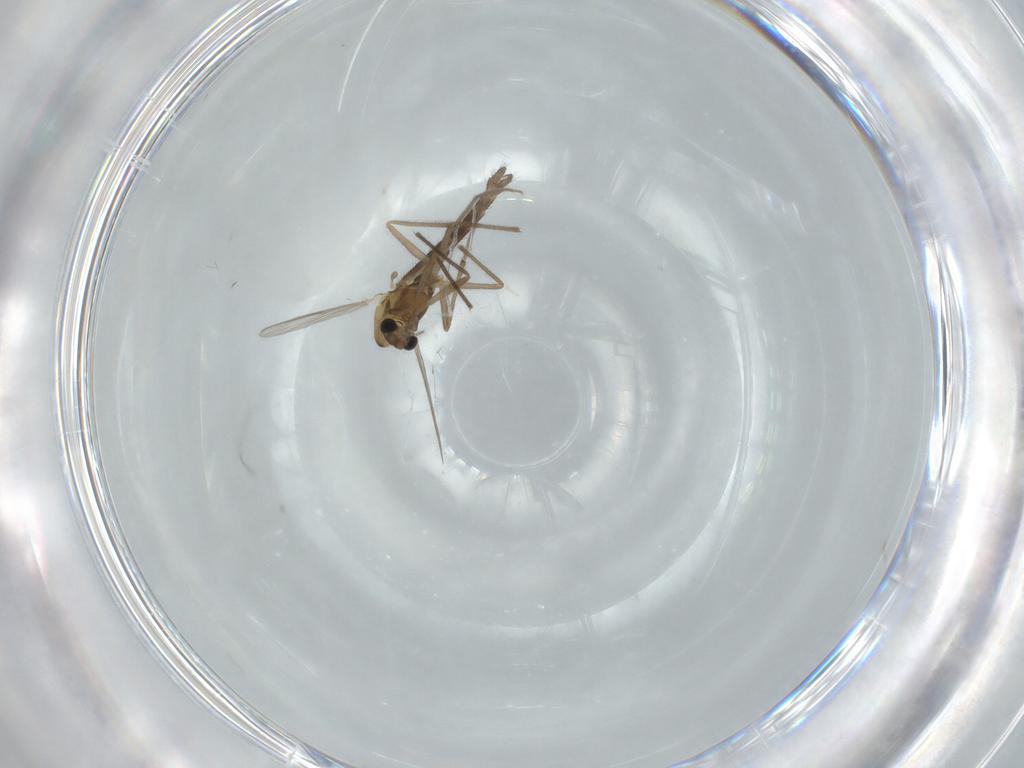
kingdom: Animalia
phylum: Arthropoda
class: Insecta
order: Diptera
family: Chironomidae
